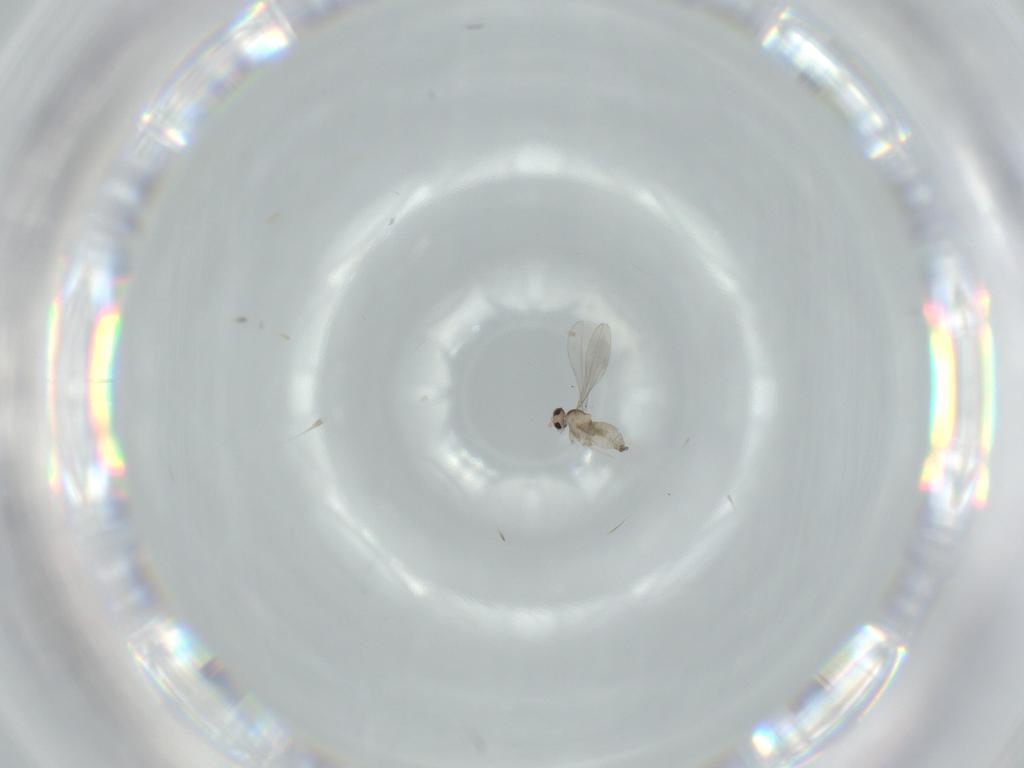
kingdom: Animalia
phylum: Arthropoda
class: Insecta
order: Diptera
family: Cecidomyiidae
